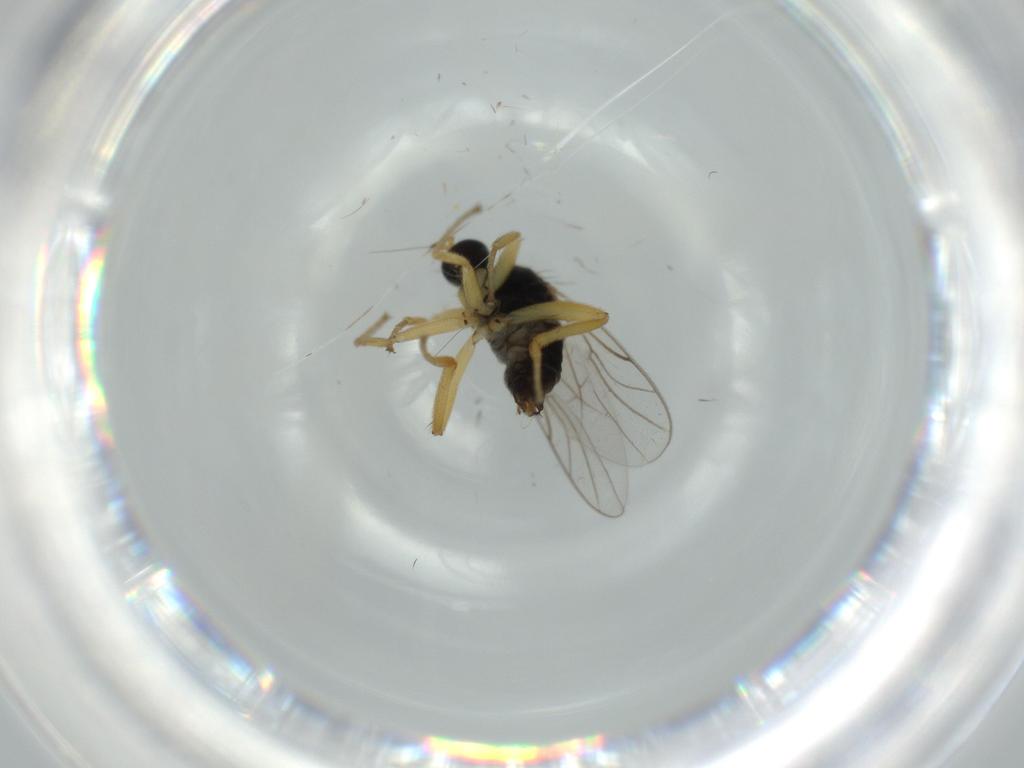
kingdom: Animalia
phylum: Arthropoda
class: Insecta
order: Diptera
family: Hybotidae
